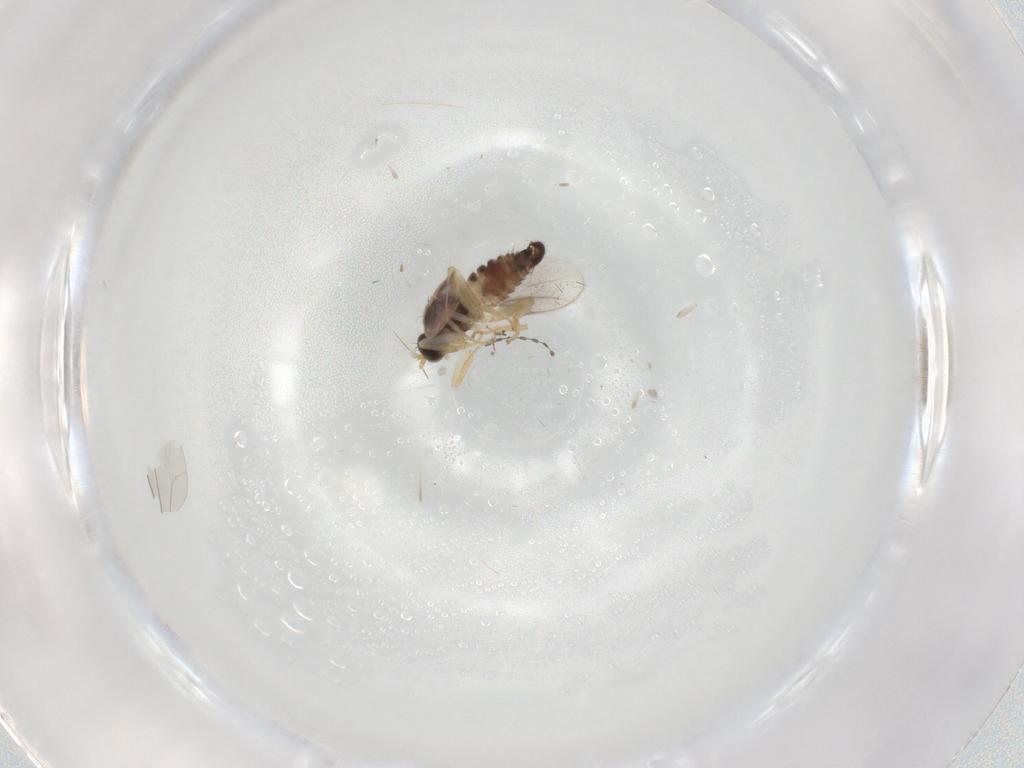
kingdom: Animalia
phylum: Arthropoda
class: Insecta
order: Diptera
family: Hybotidae
